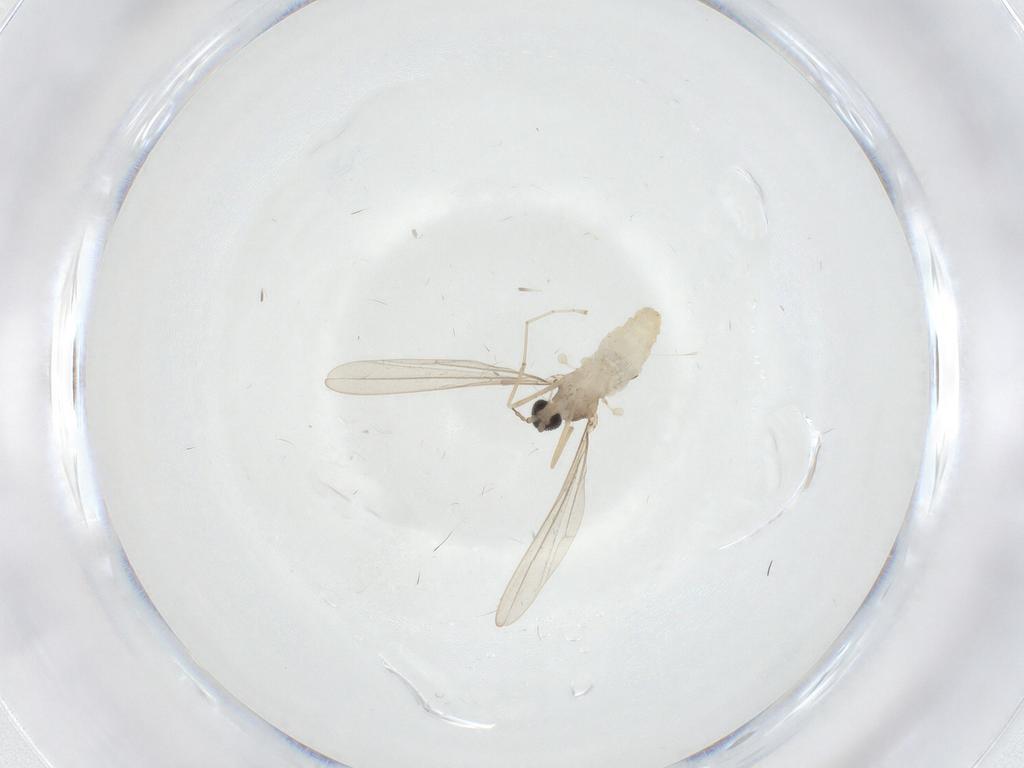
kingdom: Animalia
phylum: Arthropoda
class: Insecta
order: Diptera
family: Cecidomyiidae
